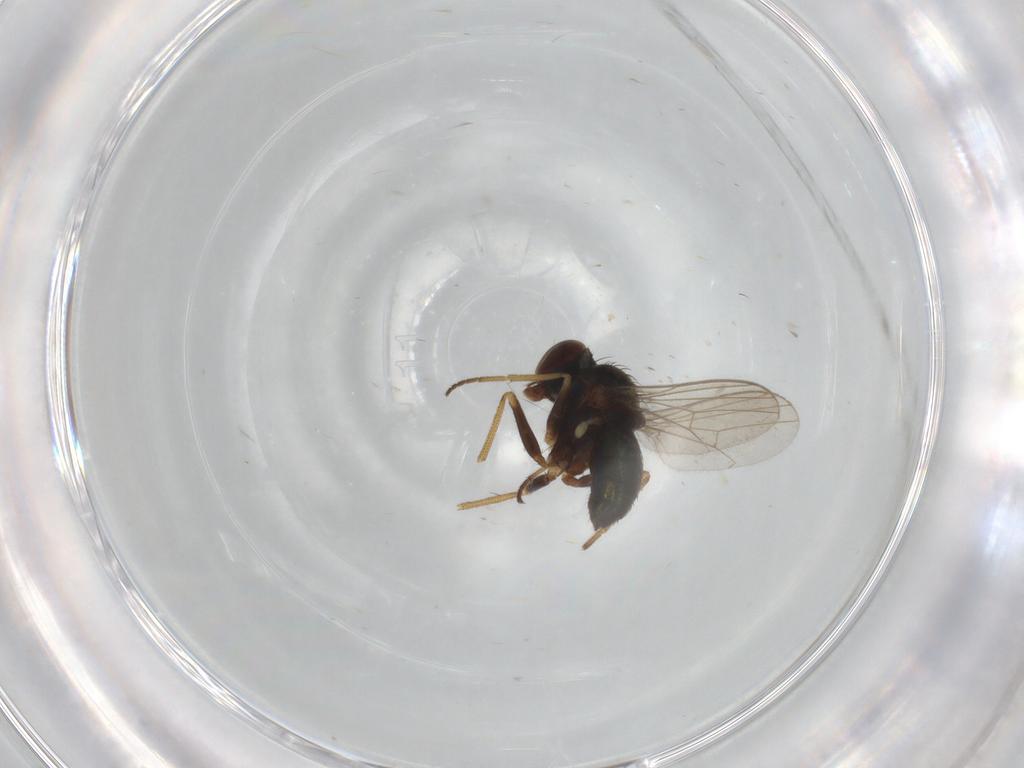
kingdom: Animalia
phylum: Arthropoda
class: Insecta
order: Diptera
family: Dolichopodidae
